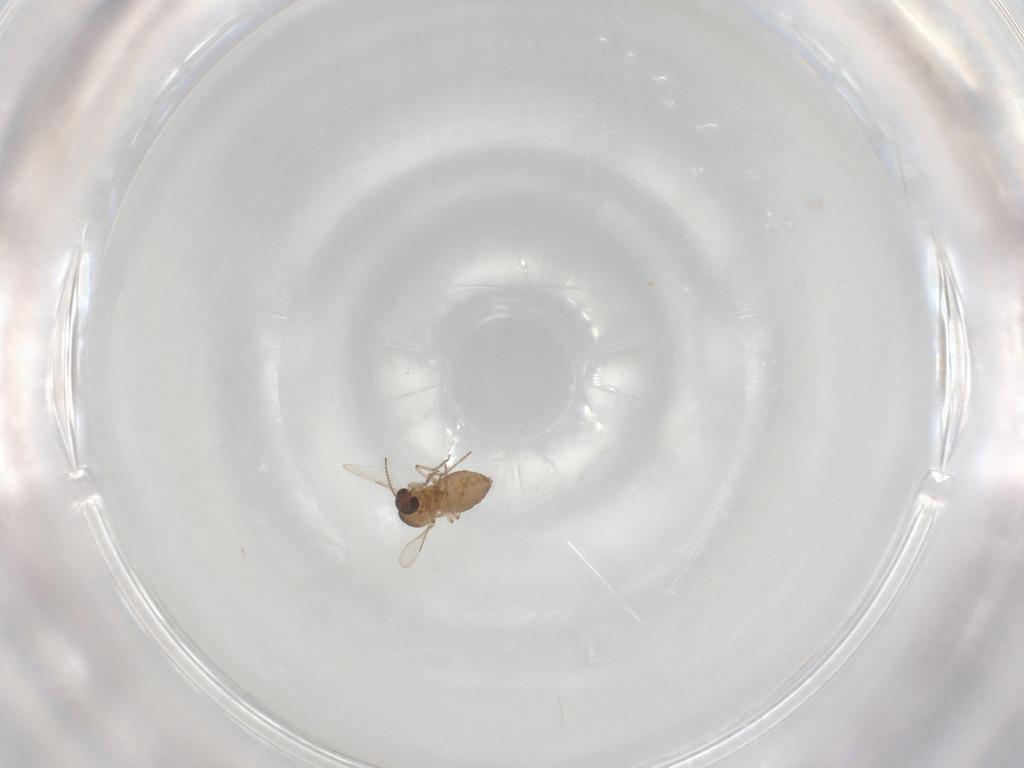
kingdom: Animalia
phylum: Arthropoda
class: Insecta
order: Diptera
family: Ceratopogonidae
